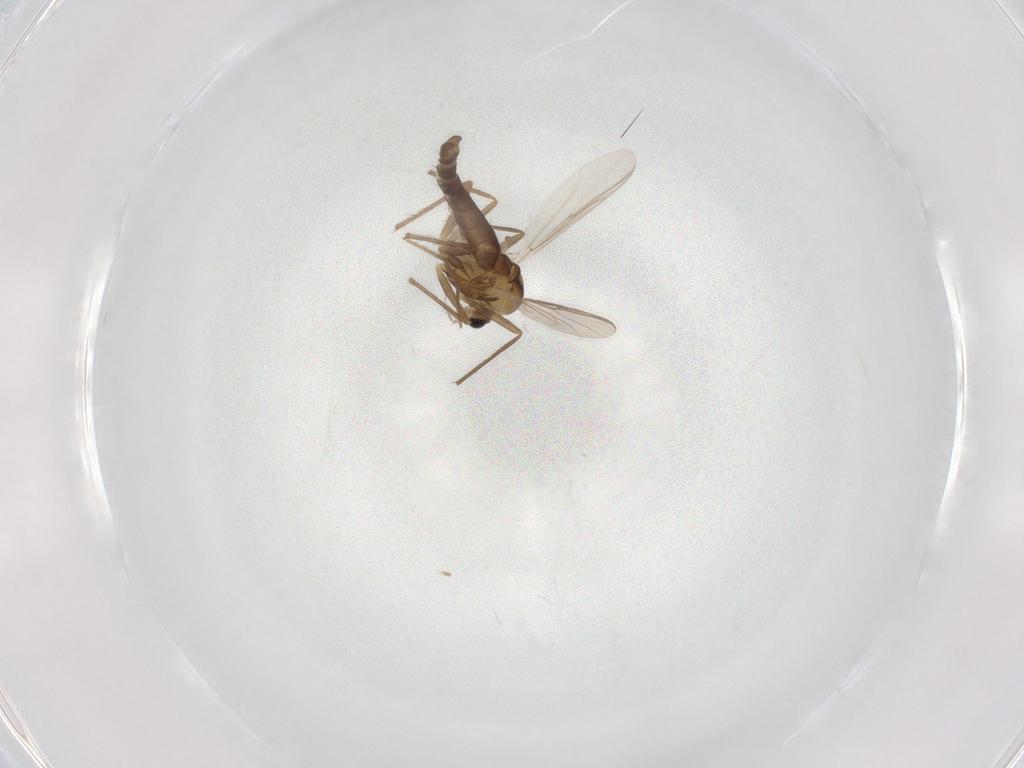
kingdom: Animalia
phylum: Arthropoda
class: Insecta
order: Diptera
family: Chironomidae
